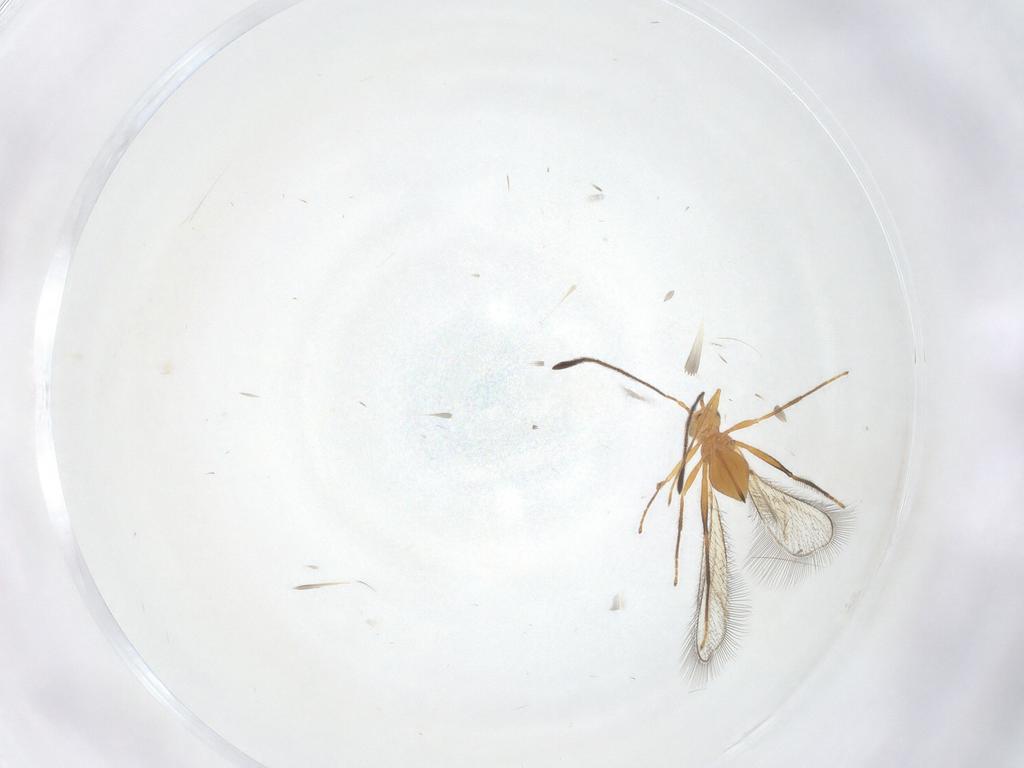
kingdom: Animalia
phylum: Arthropoda
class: Insecta
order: Hymenoptera
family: Mymaridae
